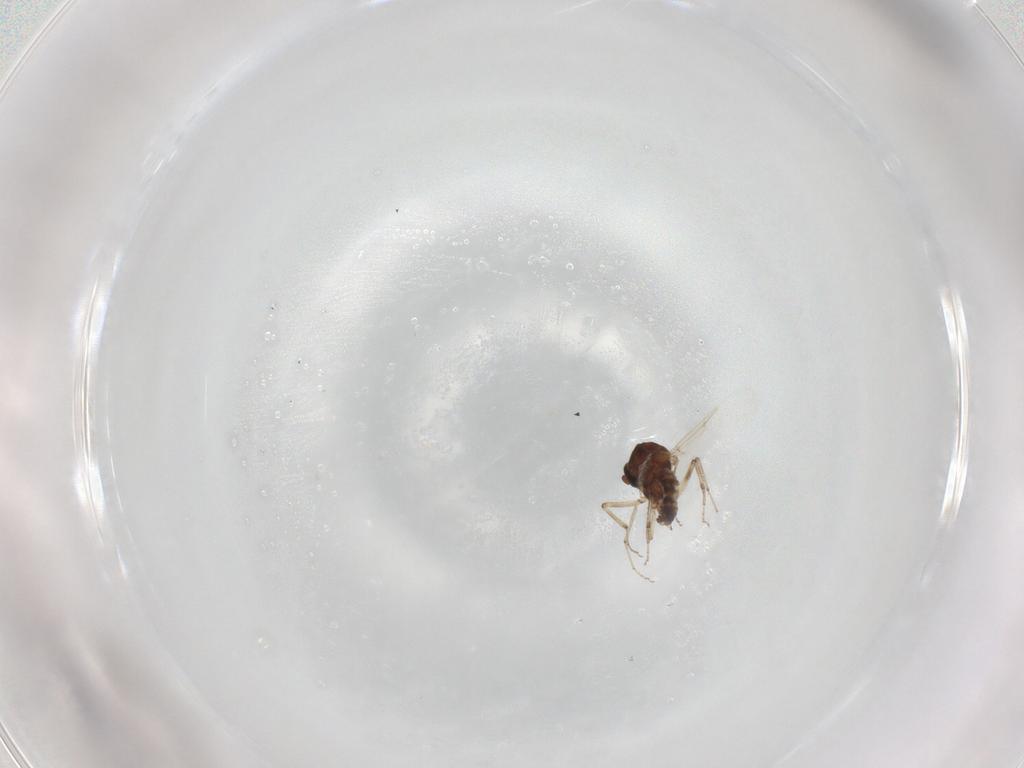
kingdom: Animalia
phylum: Arthropoda
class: Insecta
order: Diptera
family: Ceratopogonidae
